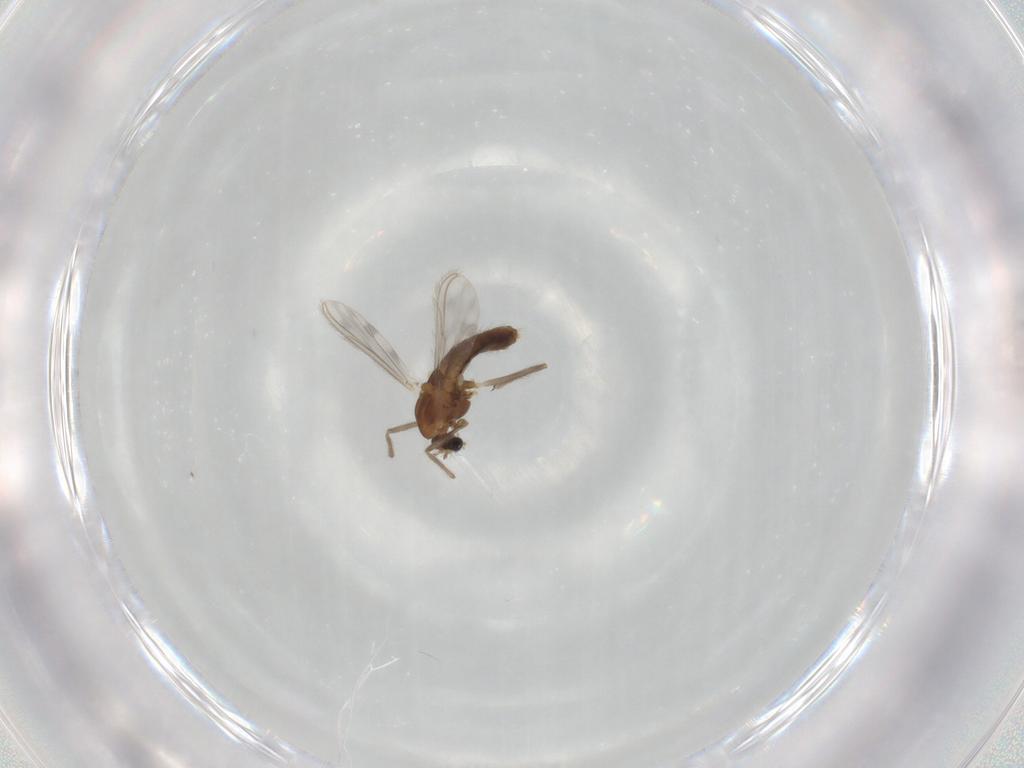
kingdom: Animalia
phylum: Arthropoda
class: Insecta
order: Diptera
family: Chironomidae
